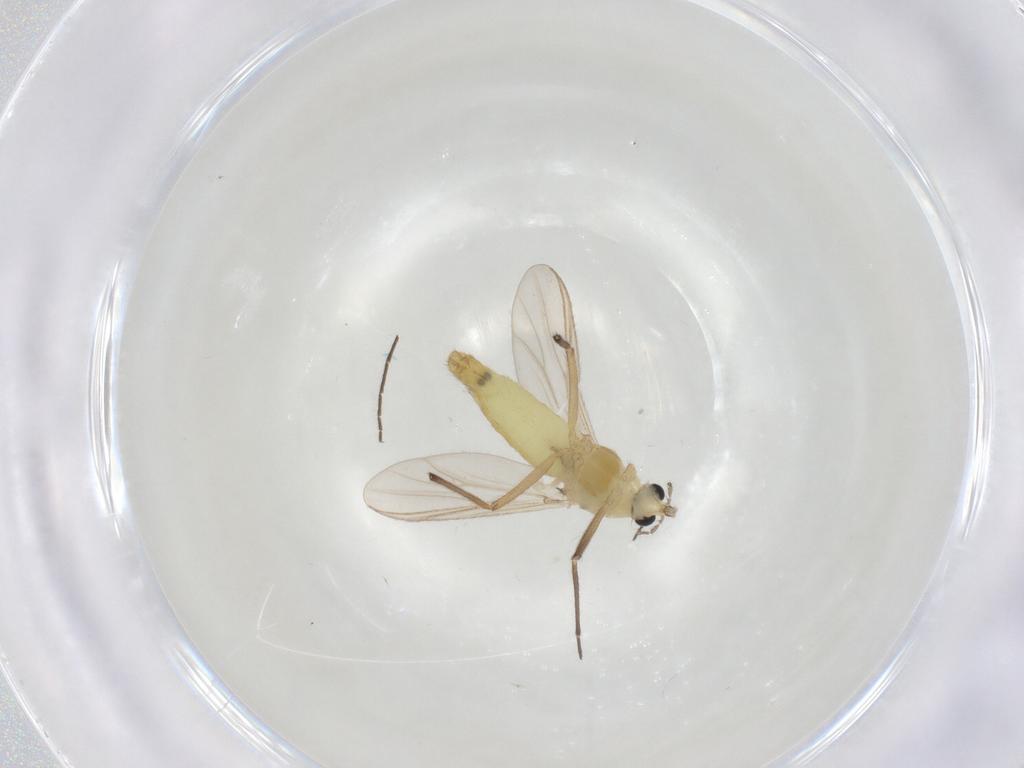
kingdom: Animalia
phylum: Arthropoda
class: Insecta
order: Diptera
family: Chironomidae
